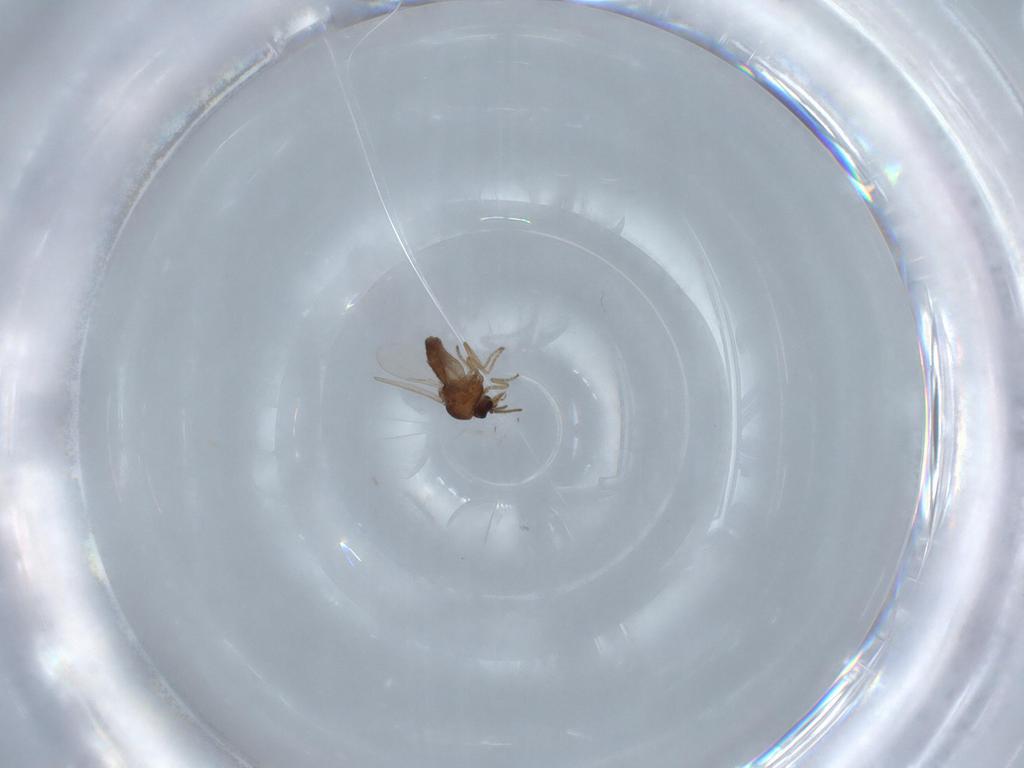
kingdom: Animalia
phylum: Arthropoda
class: Insecta
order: Diptera
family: Ceratopogonidae
